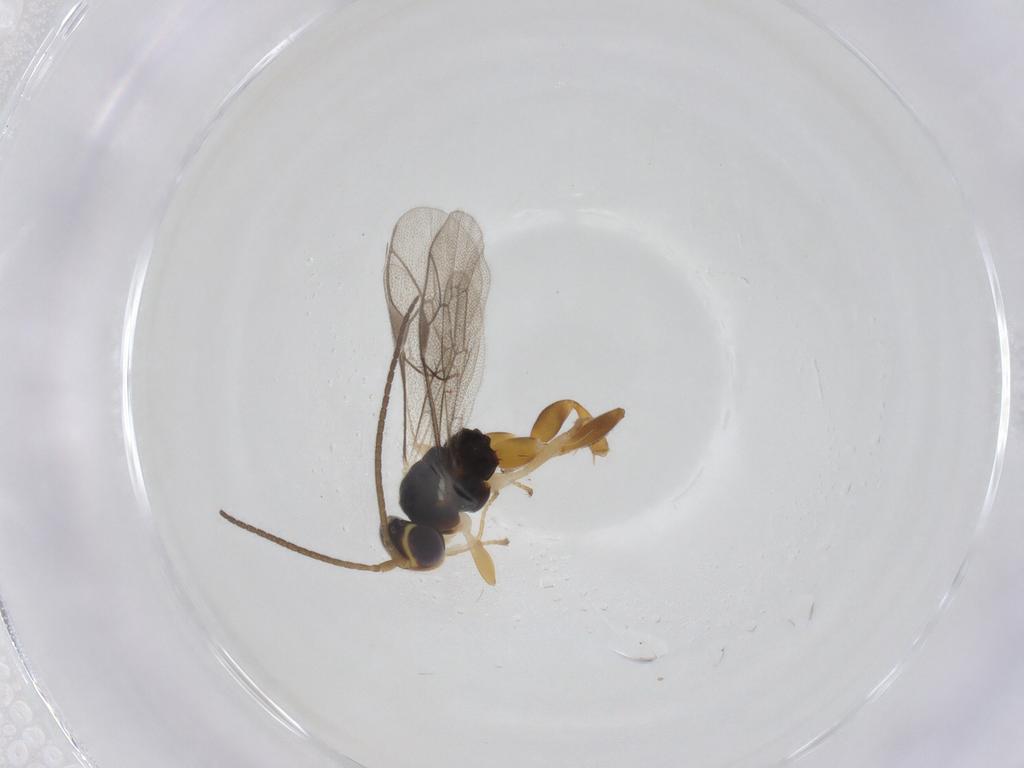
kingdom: Animalia
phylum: Arthropoda
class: Insecta
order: Hymenoptera
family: Ichneumonidae
